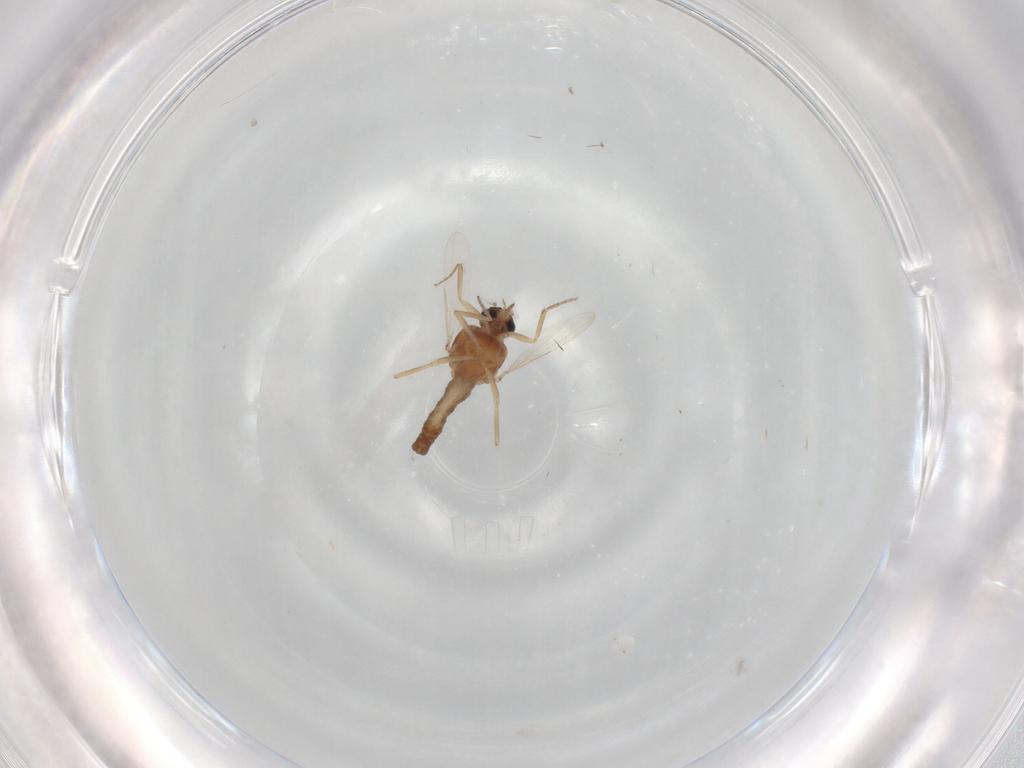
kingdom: Animalia
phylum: Arthropoda
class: Insecta
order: Diptera
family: Ceratopogonidae
